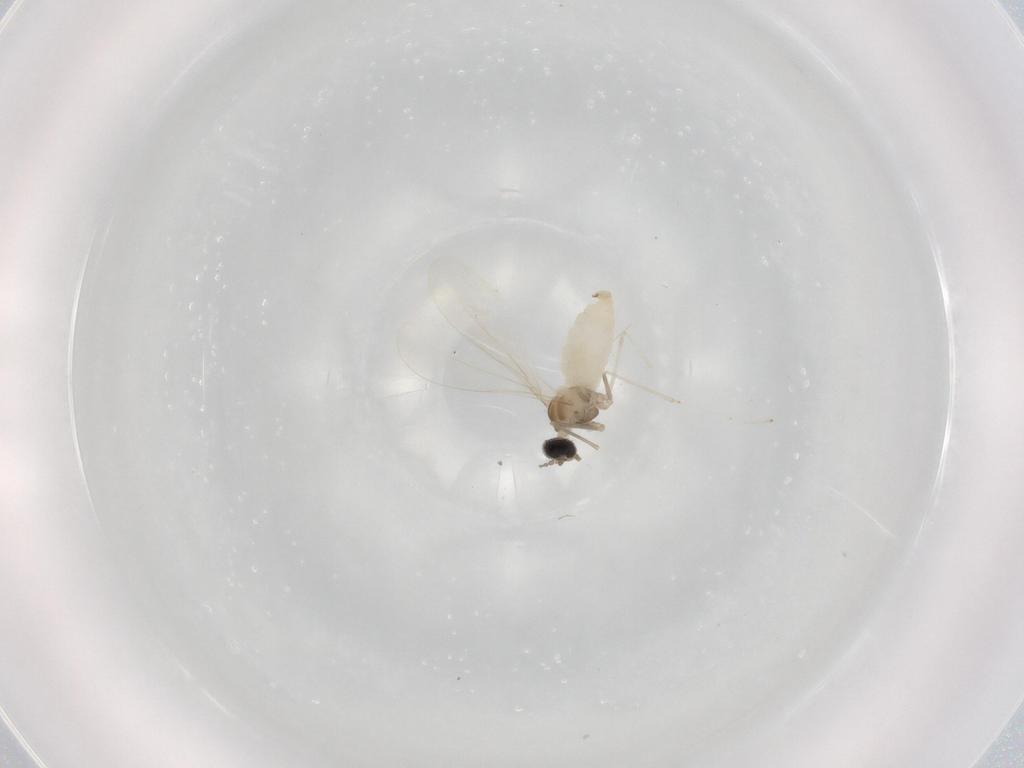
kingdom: Animalia
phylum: Arthropoda
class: Insecta
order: Diptera
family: Cecidomyiidae
